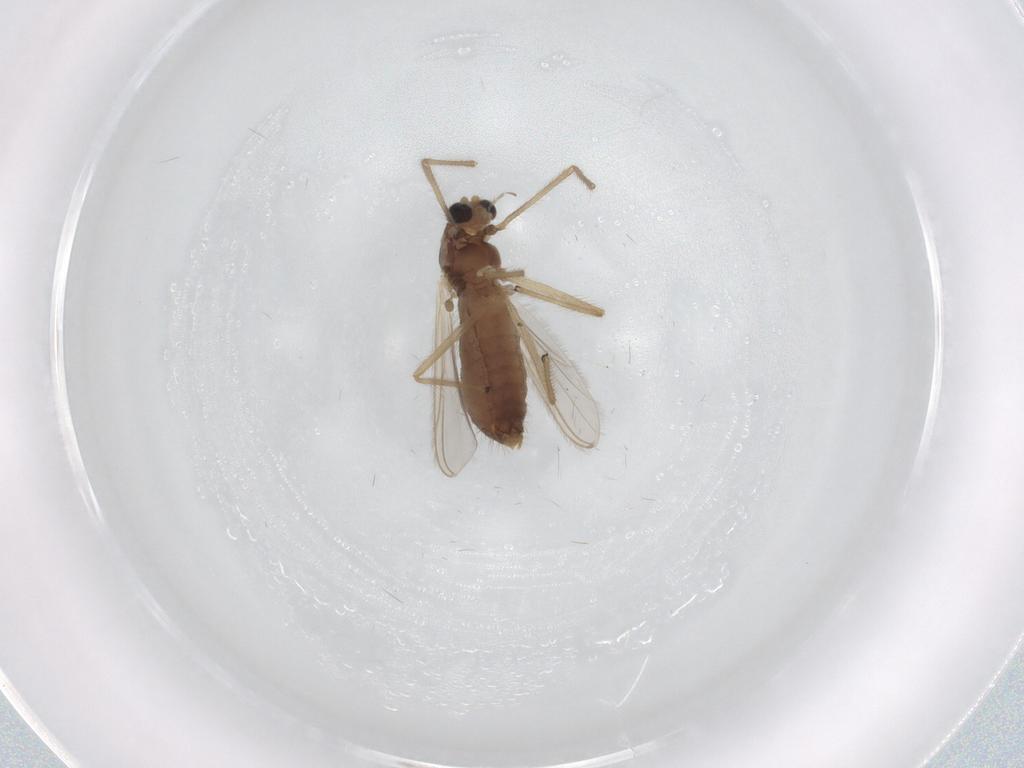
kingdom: Animalia
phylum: Arthropoda
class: Insecta
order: Diptera
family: Chironomidae
